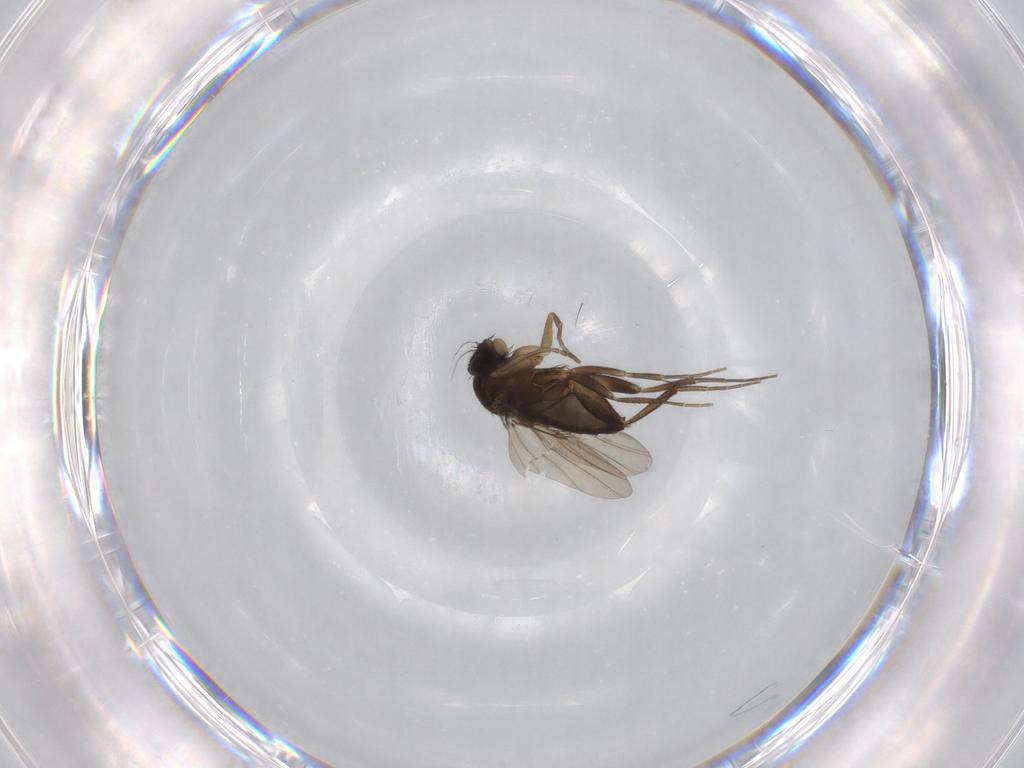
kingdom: Animalia
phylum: Arthropoda
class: Insecta
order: Diptera
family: Phoridae
